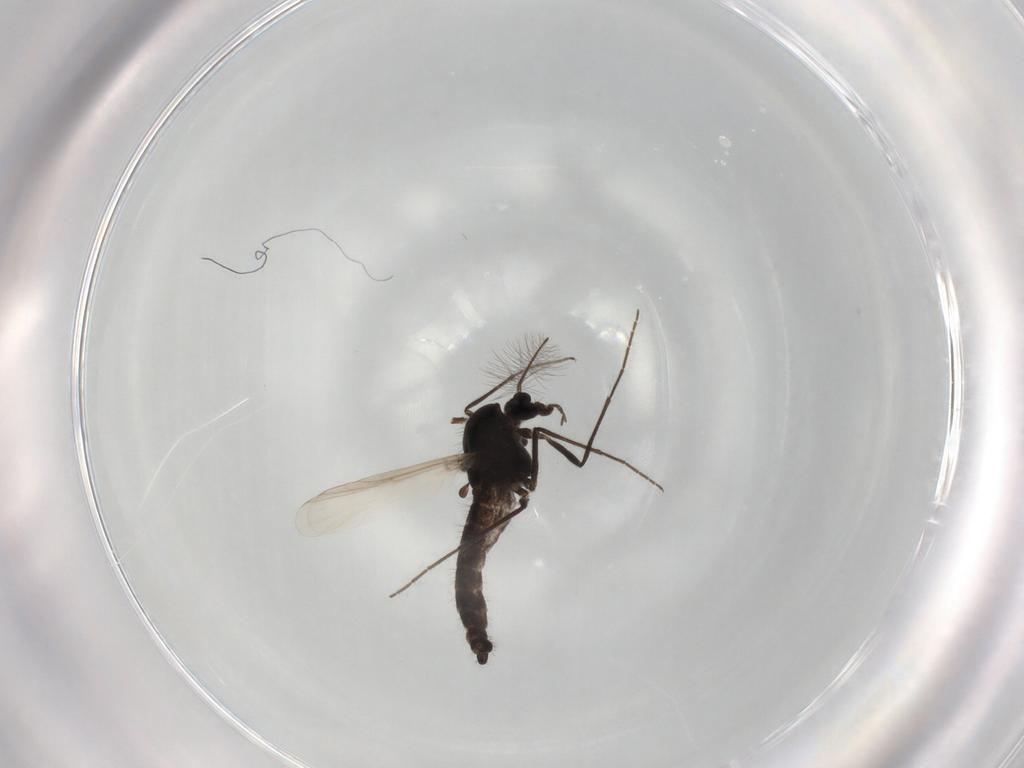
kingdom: Animalia
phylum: Arthropoda
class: Insecta
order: Diptera
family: Chironomidae
